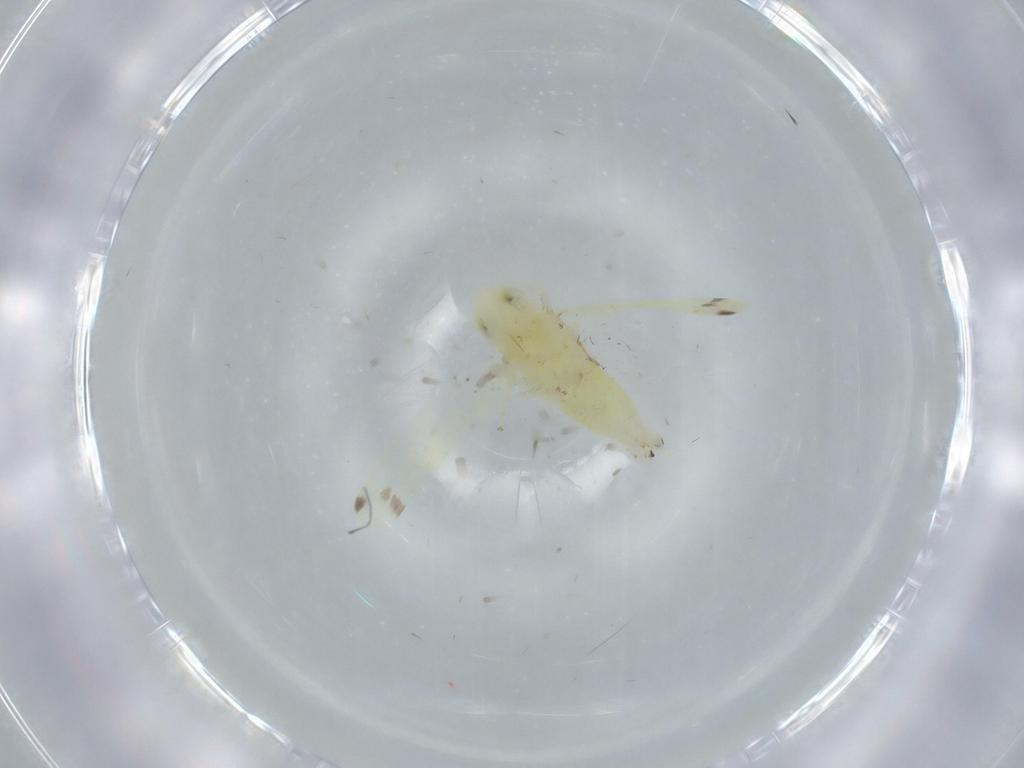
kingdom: Animalia
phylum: Arthropoda
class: Insecta
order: Hemiptera
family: Cicadellidae
